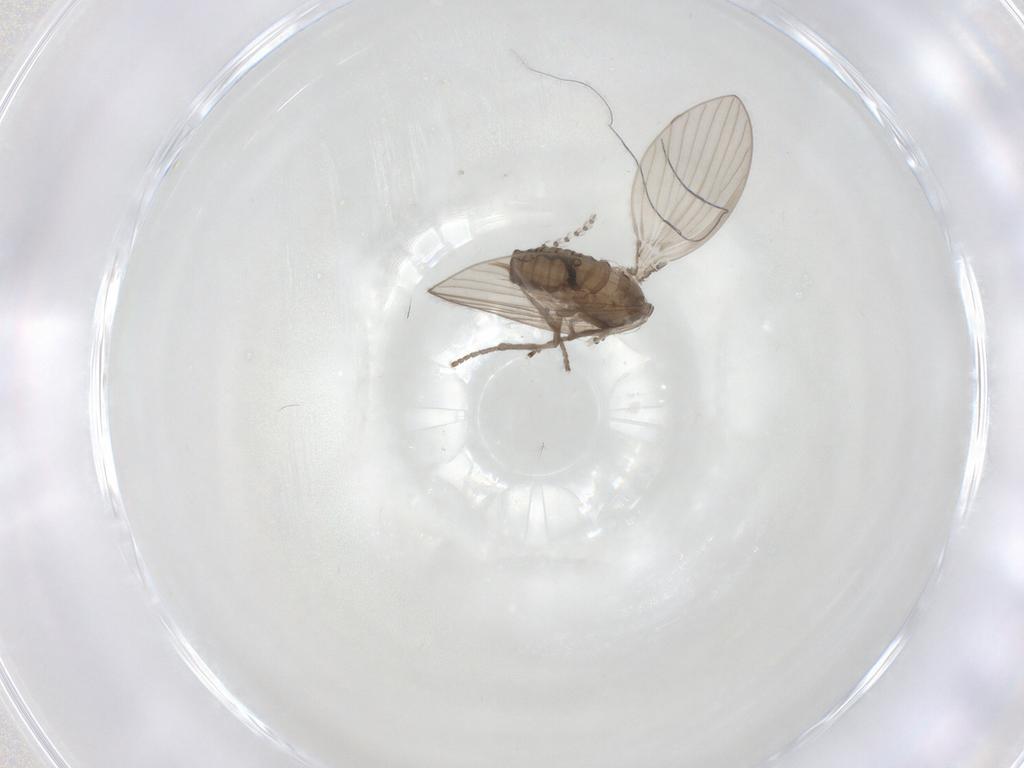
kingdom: Animalia
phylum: Arthropoda
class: Insecta
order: Diptera
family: Psychodidae
